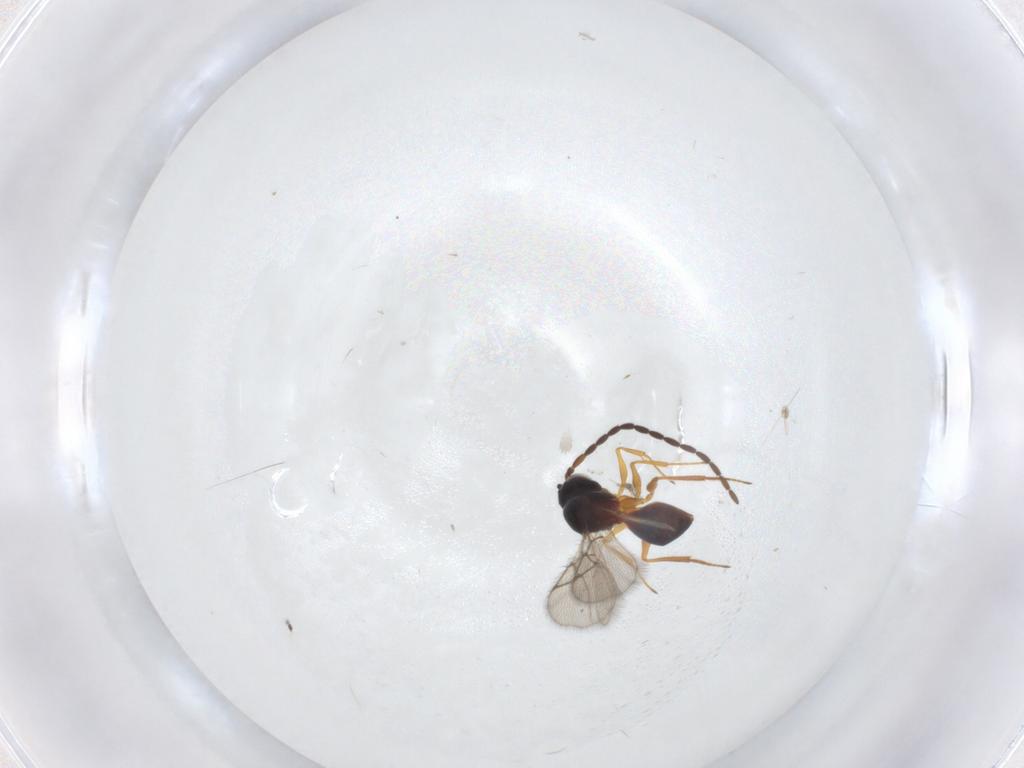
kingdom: Animalia
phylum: Arthropoda
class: Insecta
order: Hymenoptera
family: Figitidae
